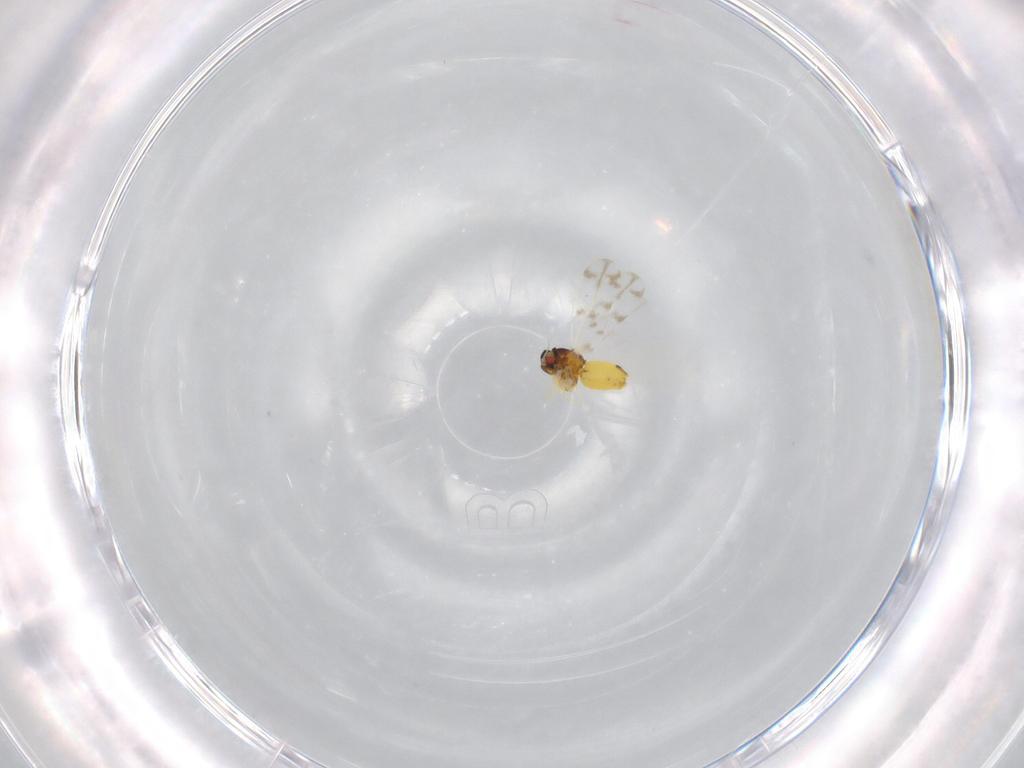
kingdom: Animalia
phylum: Arthropoda
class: Insecta
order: Hemiptera
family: Aleyrodidae
